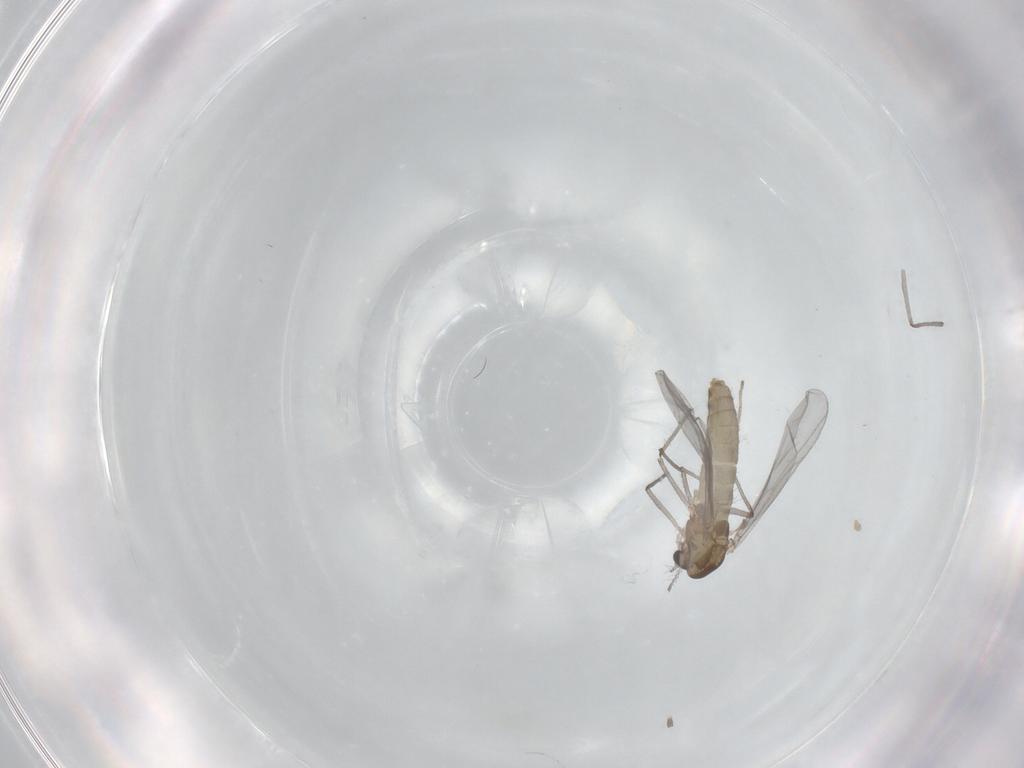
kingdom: Animalia
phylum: Arthropoda
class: Insecta
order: Diptera
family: Chironomidae
